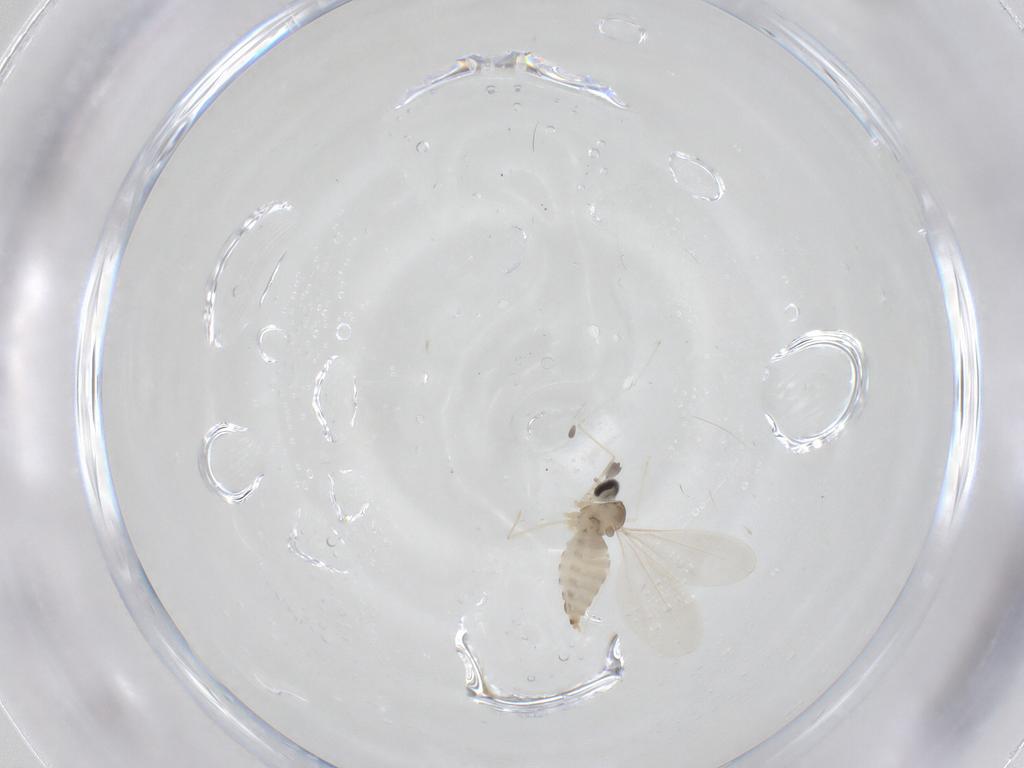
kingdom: Animalia
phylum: Arthropoda
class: Insecta
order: Diptera
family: Cecidomyiidae
